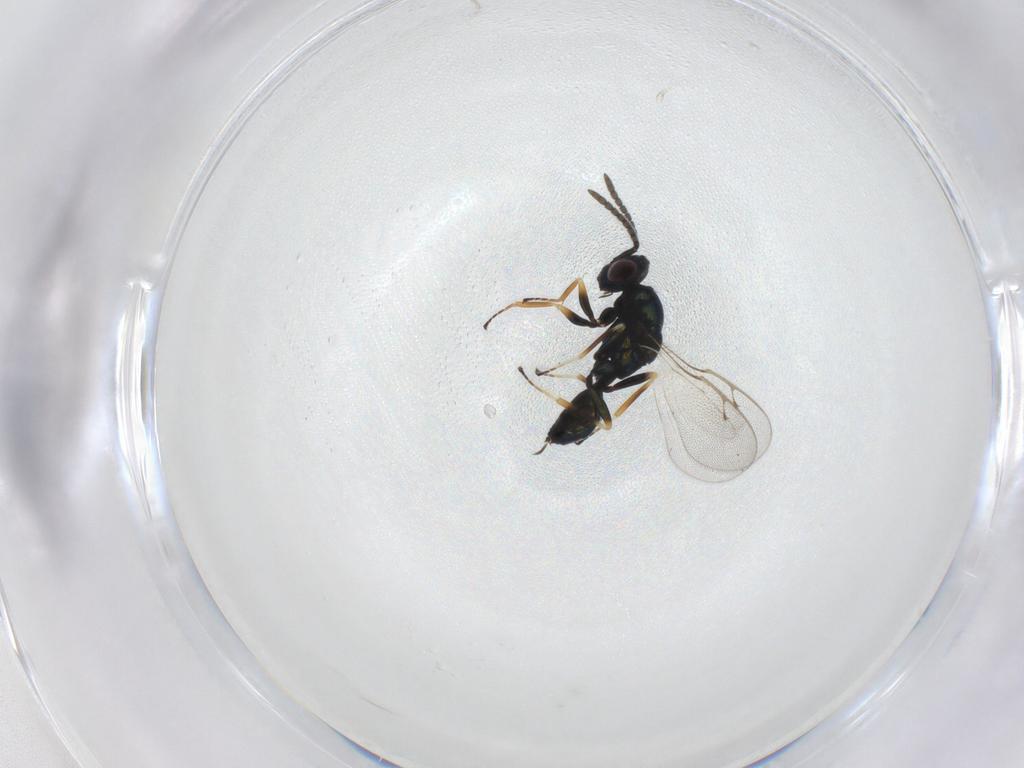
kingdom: Animalia
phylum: Arthropoda
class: Insecta
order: Hymenoptera
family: Pteromalidae
